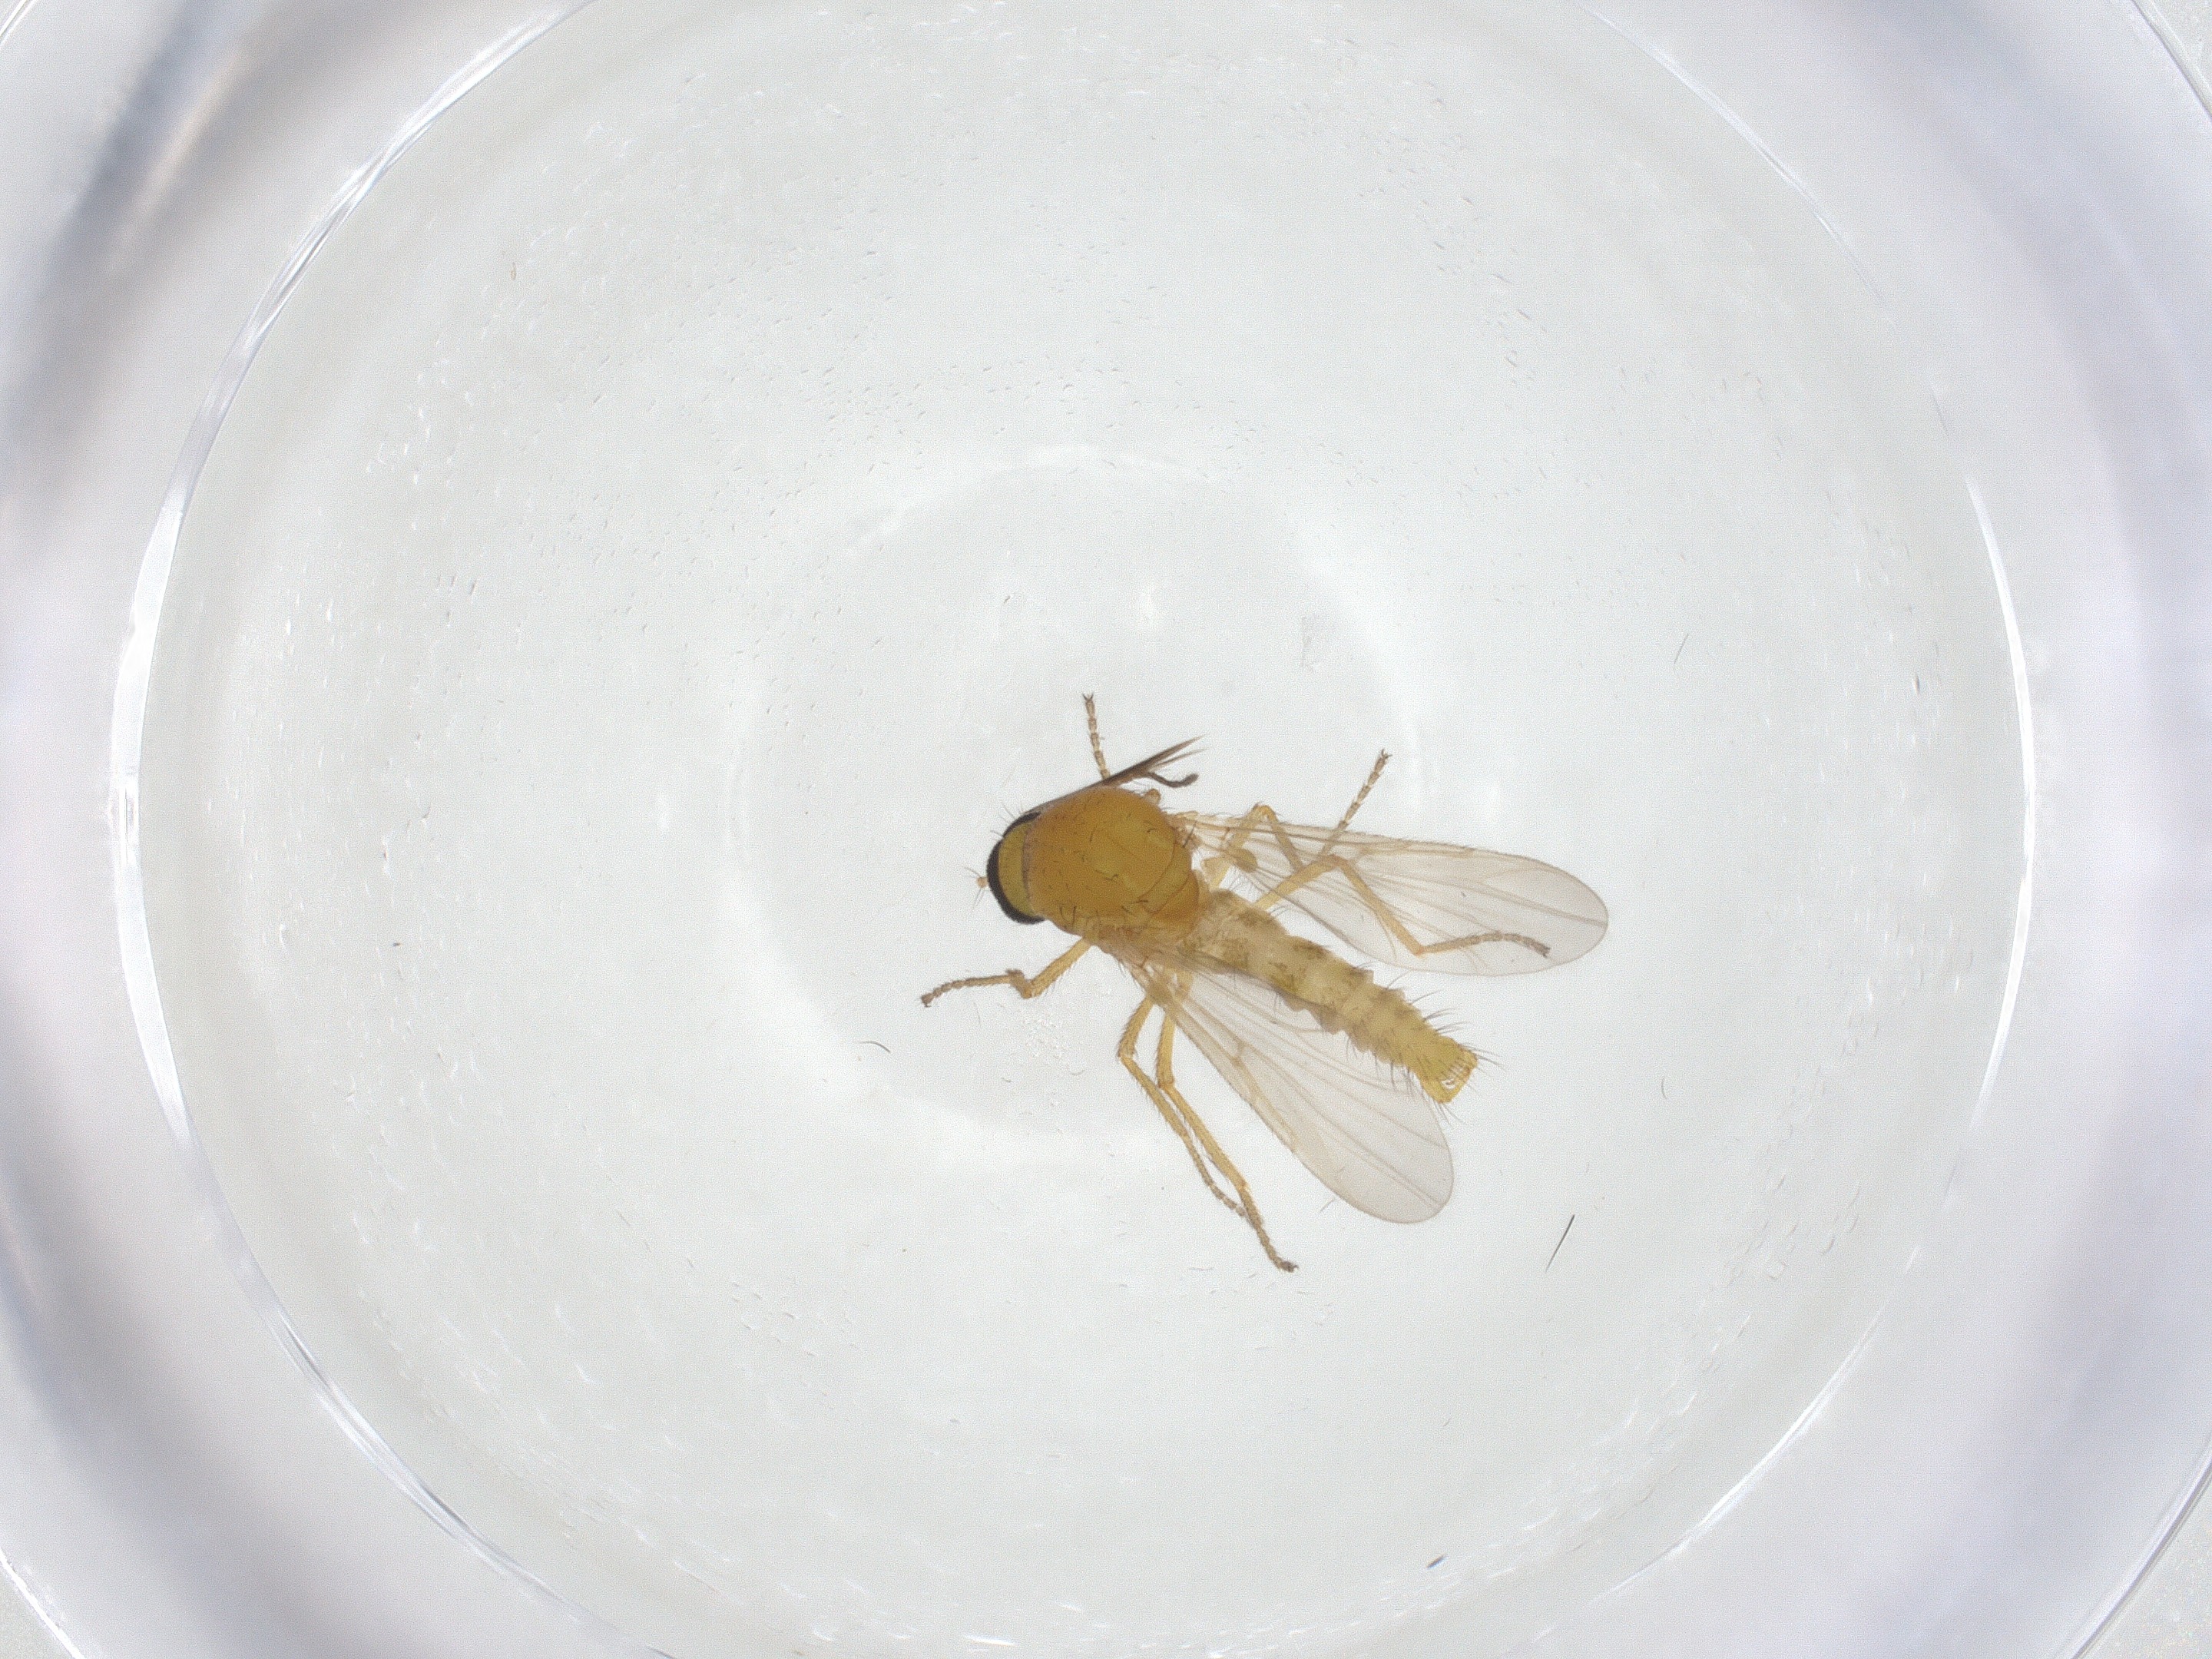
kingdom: Animalia
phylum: Arthropoda
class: Insecta
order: Diptera
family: Ceratopogonidae
